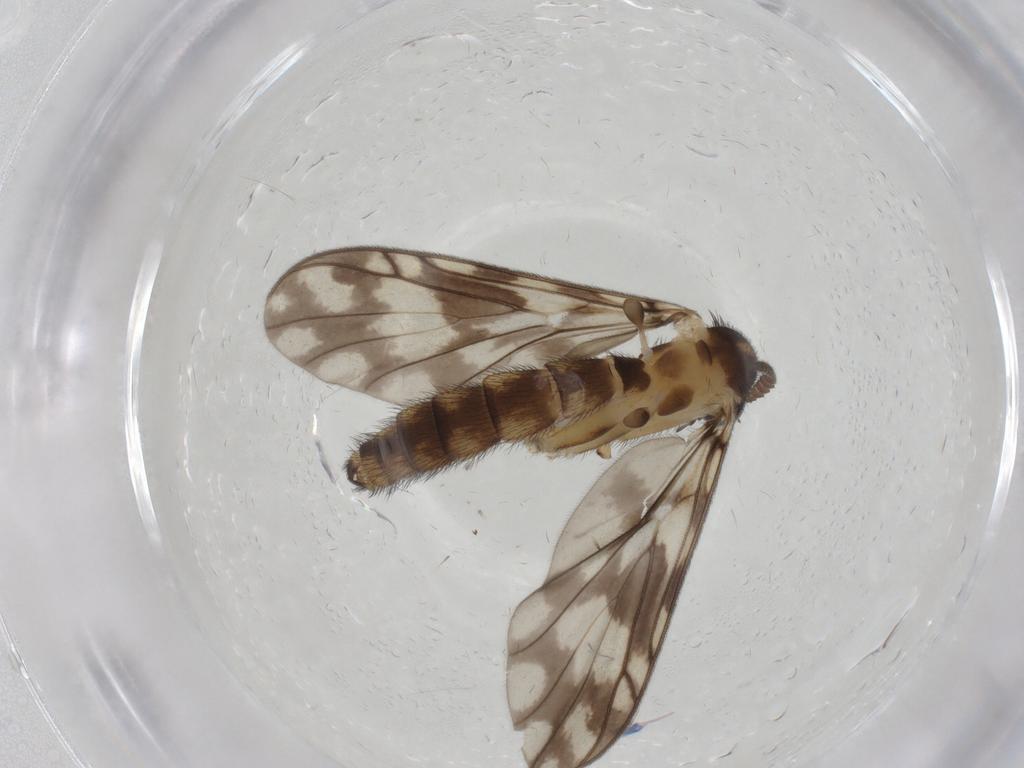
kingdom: Animalia
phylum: Arthropoda
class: Insecta
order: Diptera
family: Keroplatidae
